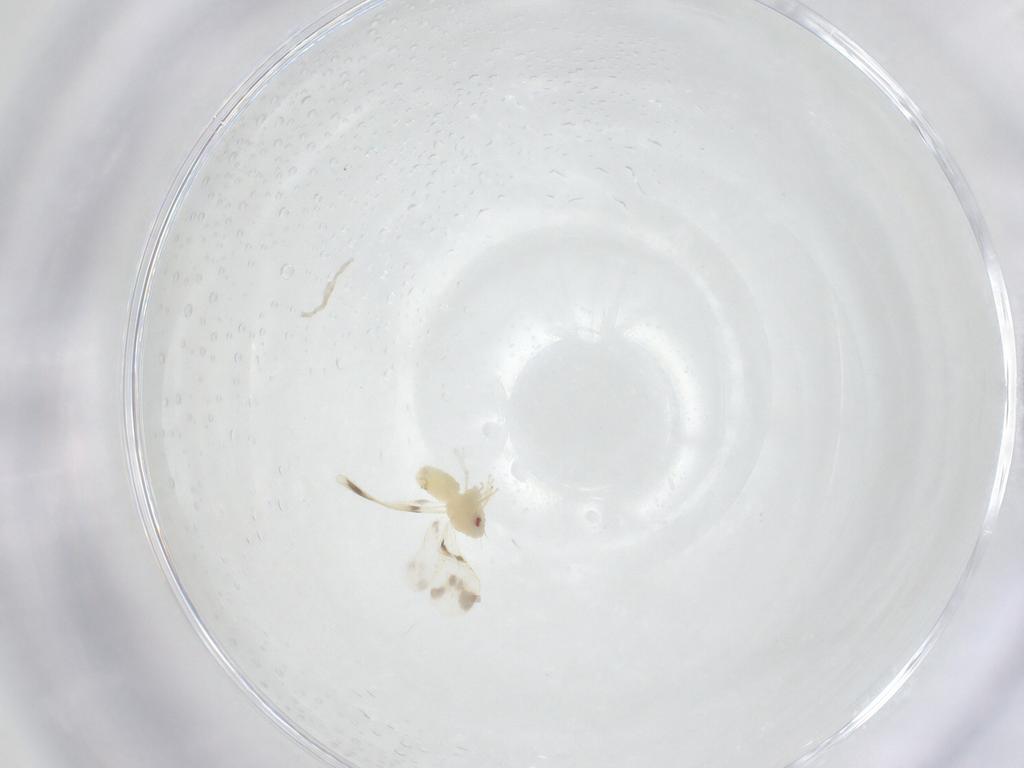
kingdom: Animalia
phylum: Arthropoda
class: Insecta
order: Hemiptera
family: Aleyrodidae
